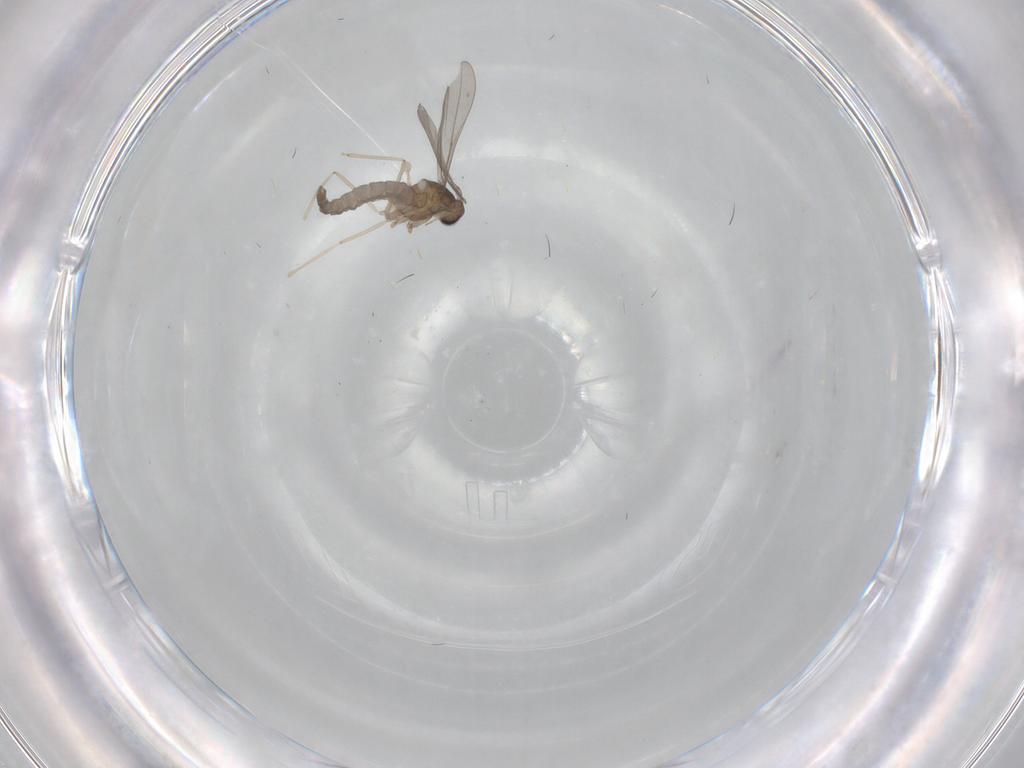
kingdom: Animalia
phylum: Arthropoda
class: Insecta
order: Diptera
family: Cecidomyiidae
